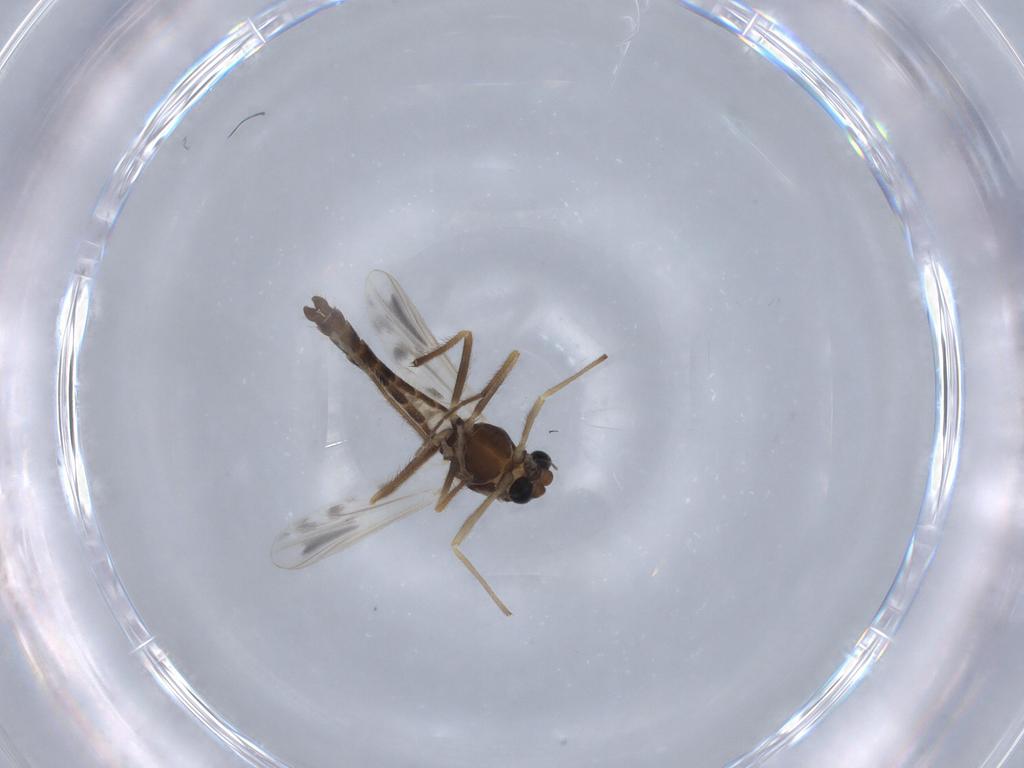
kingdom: Animalia
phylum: Arthropoda
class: Insecta
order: Diptera
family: Chironomidae
